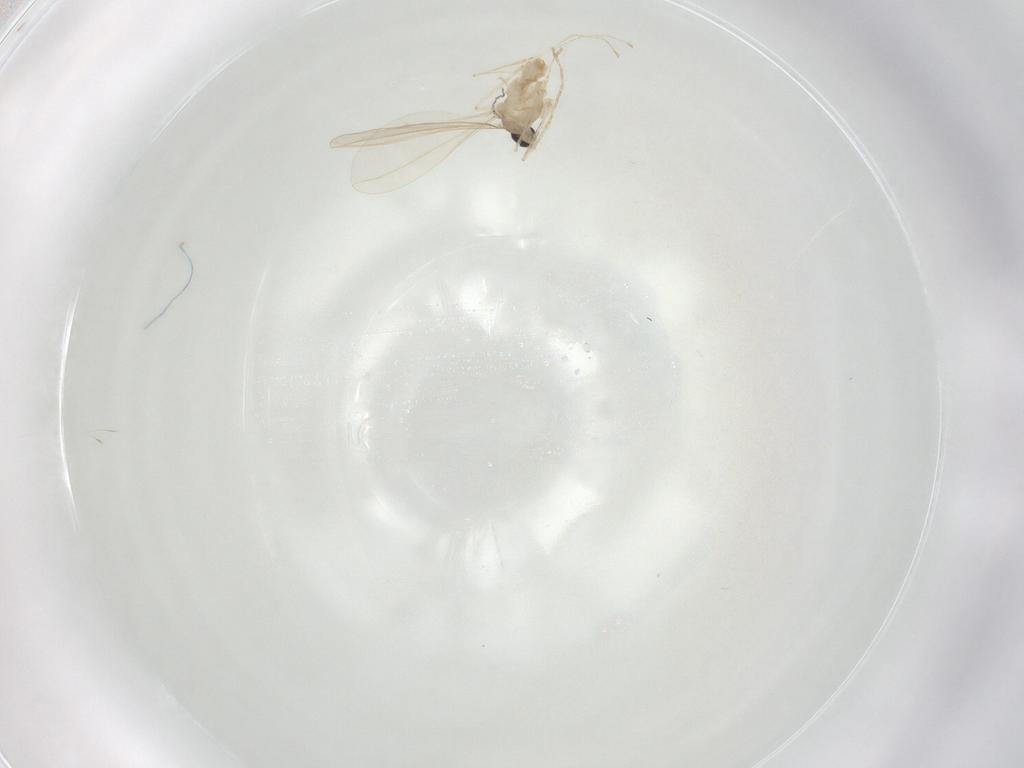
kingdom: Animalia
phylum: Arthropoda
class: Insecta
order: Diptera
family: Cecidomyiidae
